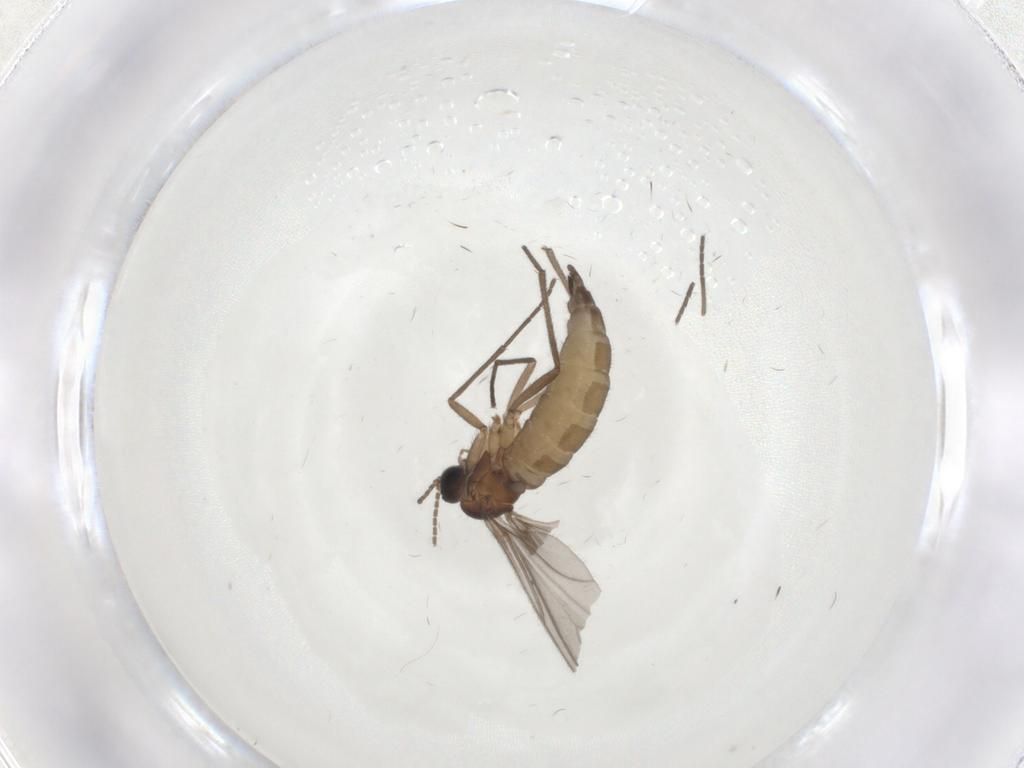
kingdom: Animalia
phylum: Arthropoda
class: Insecta
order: Diptera
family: Sciaridae
